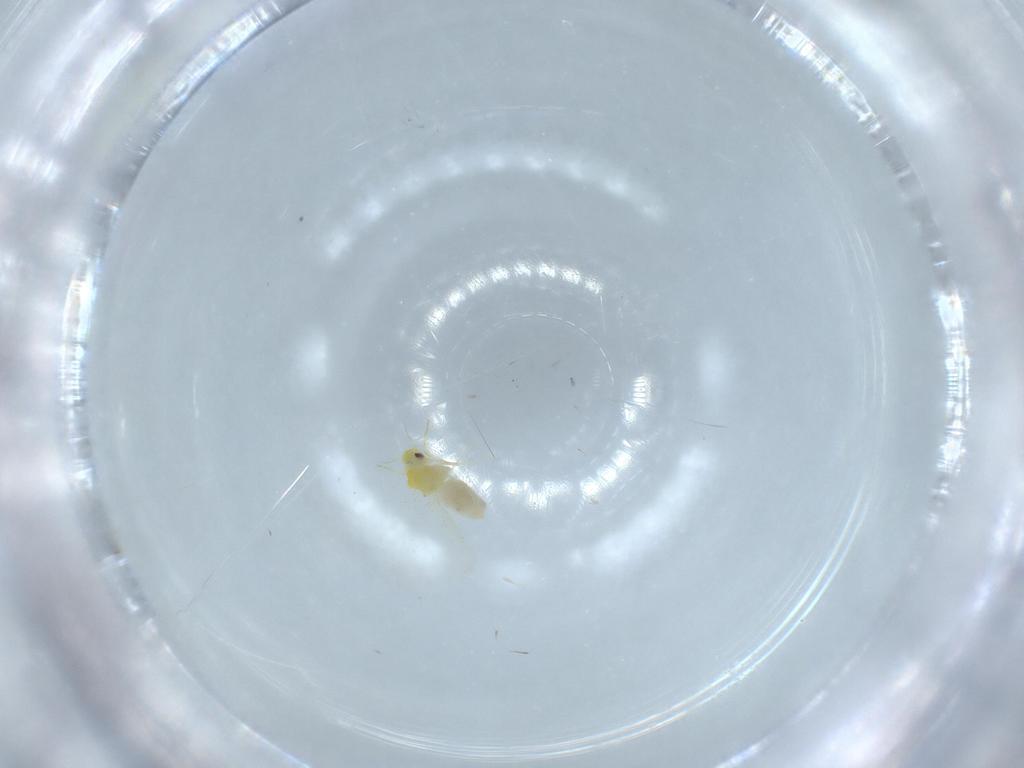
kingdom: Animalia
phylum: Arthropoda
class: Insecta
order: Hemiptera
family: Aleyrodidae
